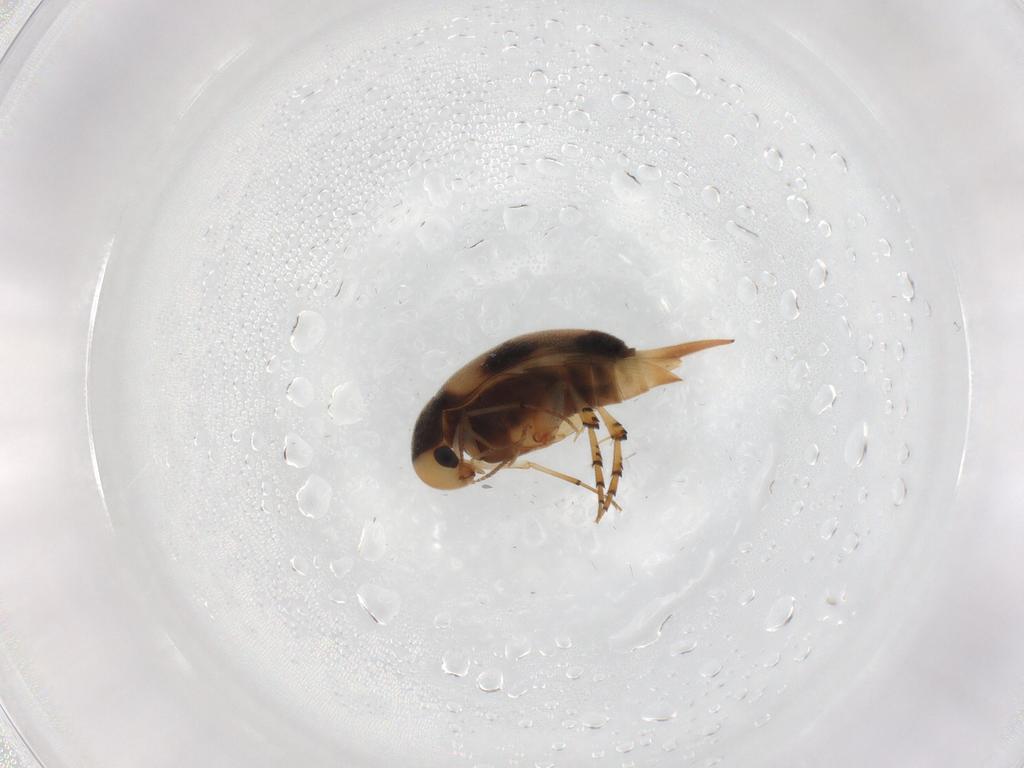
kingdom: Animalia
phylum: Arthropoda
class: Insecta
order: Coleoptera
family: Mordellidae
